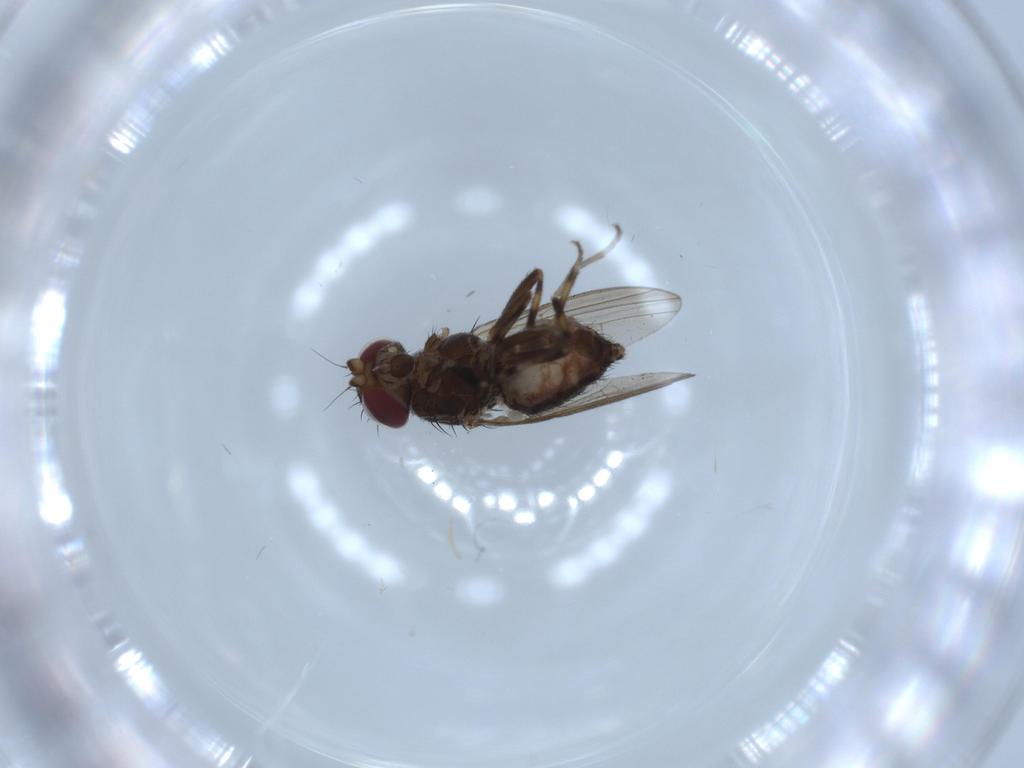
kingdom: Animalia
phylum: Arthropoda
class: Insecta
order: Diptera
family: Heleomyzidae
